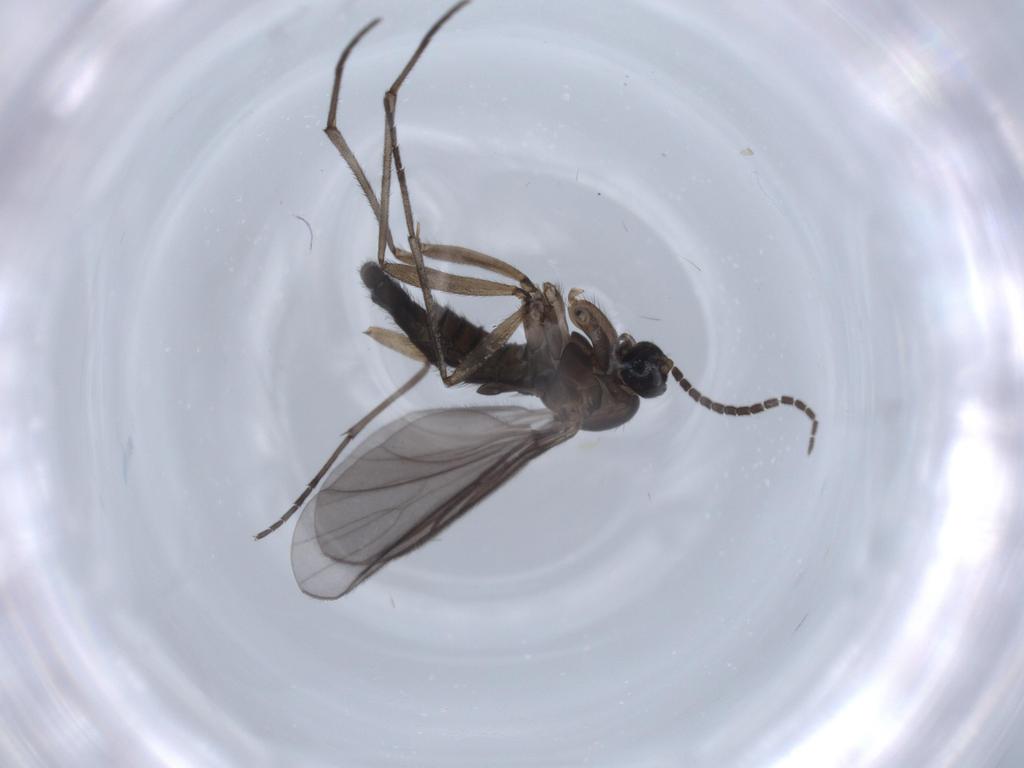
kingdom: Animalia
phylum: Arthropoda
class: Insecta
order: Diptera
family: Sciaridae
